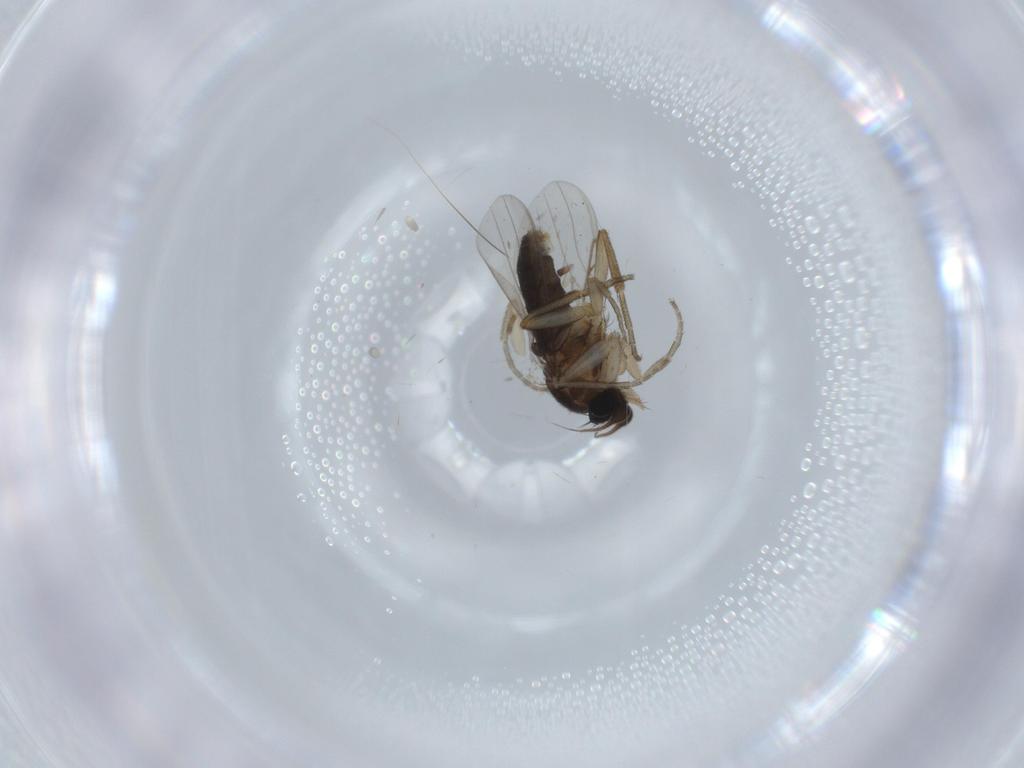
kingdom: Animalia
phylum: Arthropoda
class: Insecta
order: Diptera
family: Phoridae
